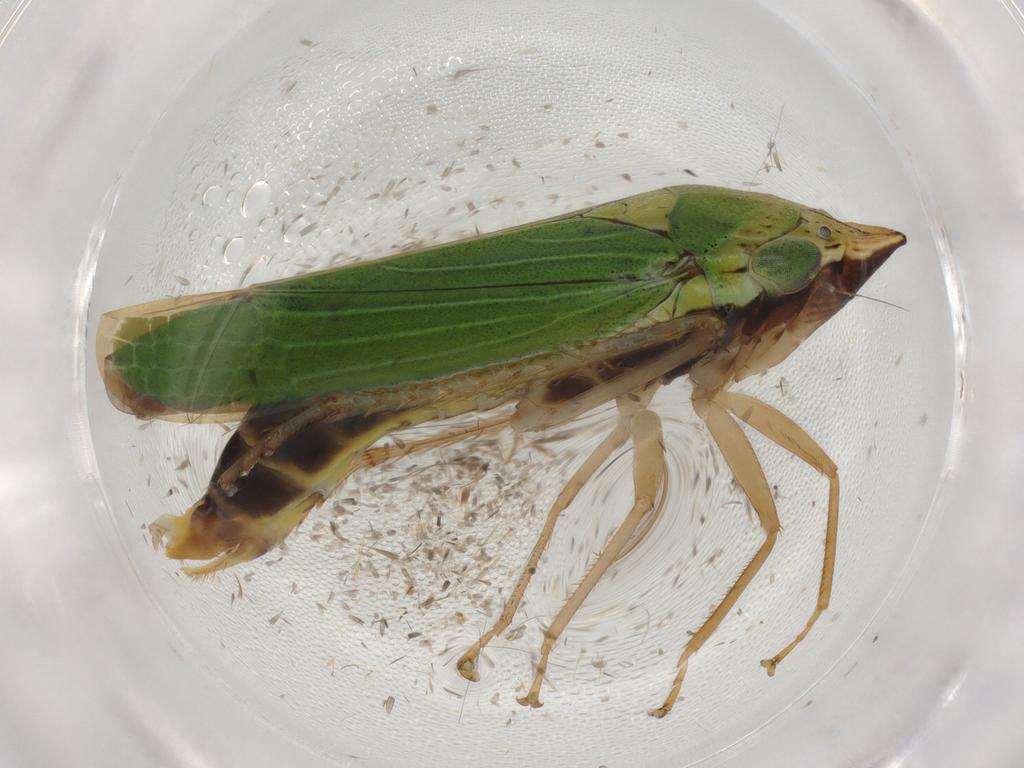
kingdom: Animalia
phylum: Arthropoda
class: Insecta
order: Hemiptera
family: Cicadellidae
